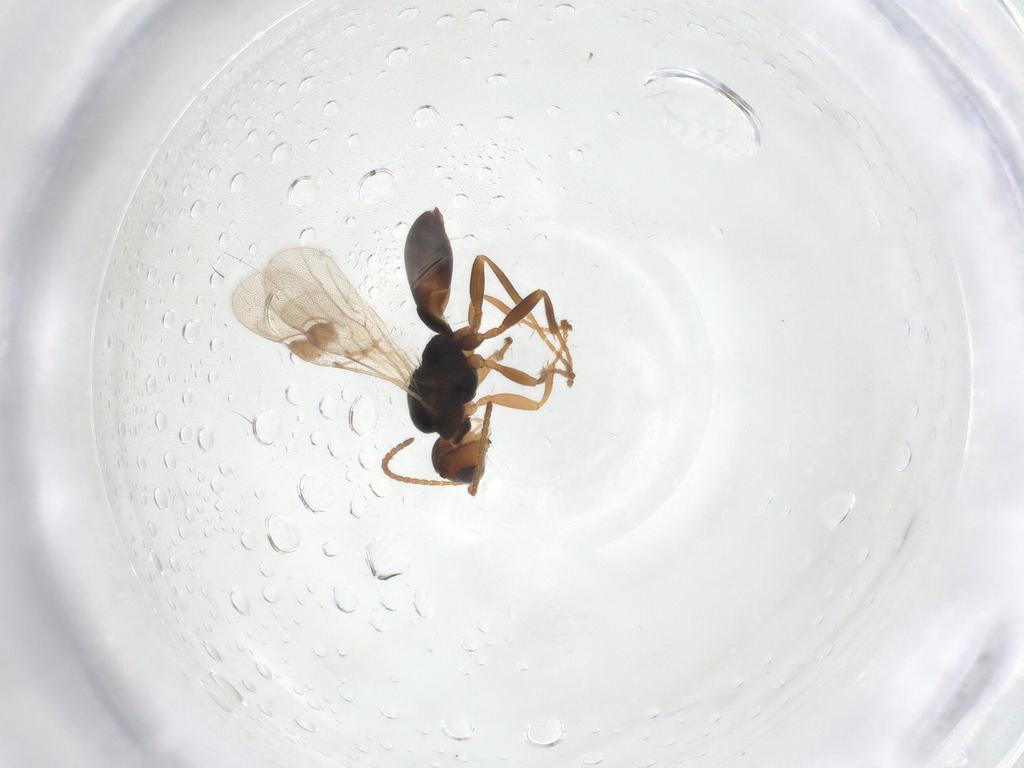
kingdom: Animalia
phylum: Arthropoda
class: Insecta
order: Hymenoptera
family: Braconidae
